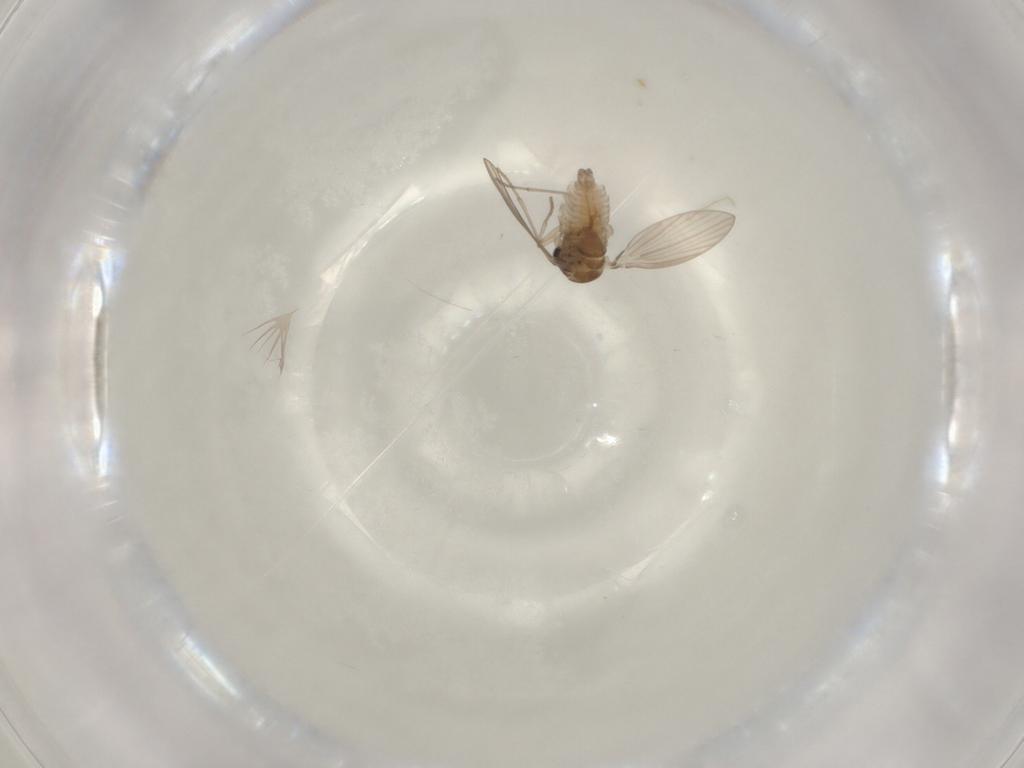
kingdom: Animalia
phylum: Arthropoda
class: Insecta
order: Diptera
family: Psychodidae
